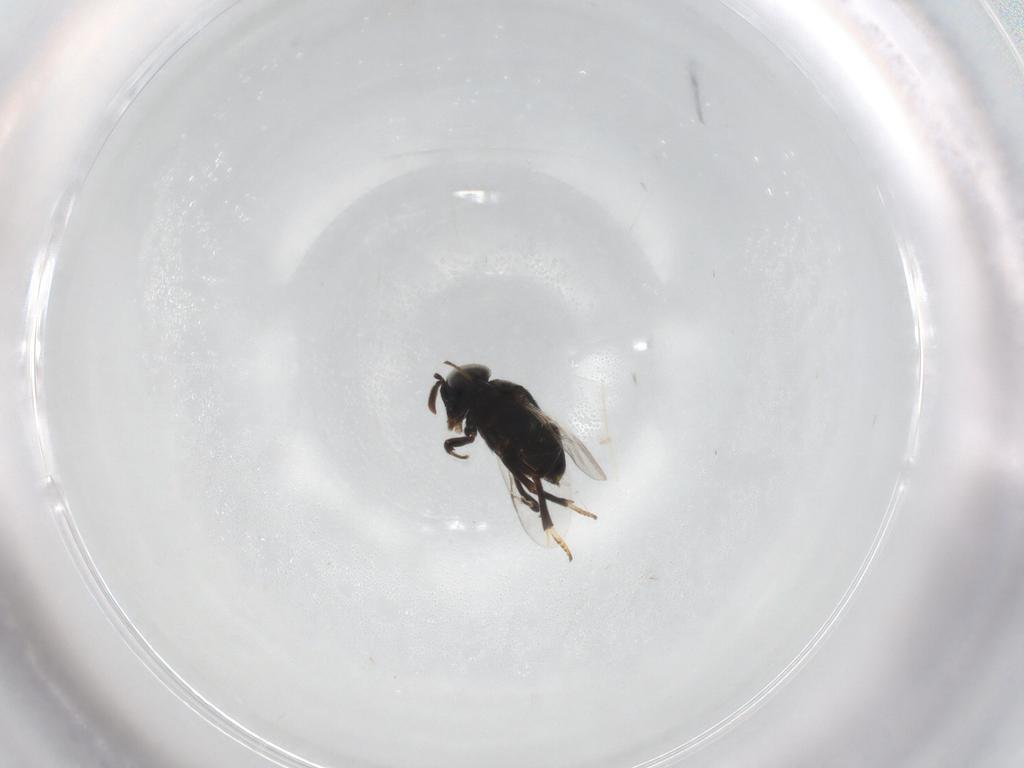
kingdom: Animalia
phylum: Arthropoda
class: Insecta
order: Hymenoptera
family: Encyrtidae
